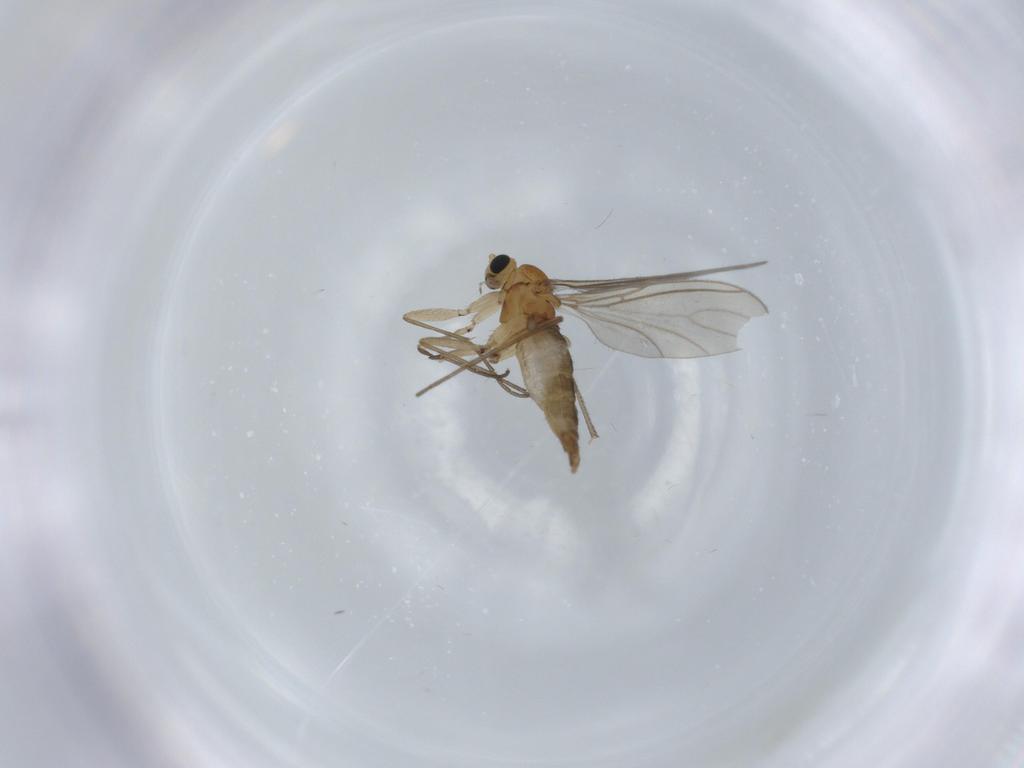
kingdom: Animalia
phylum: Arthropoda
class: Insecta
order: Diptera
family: Sciaridae
